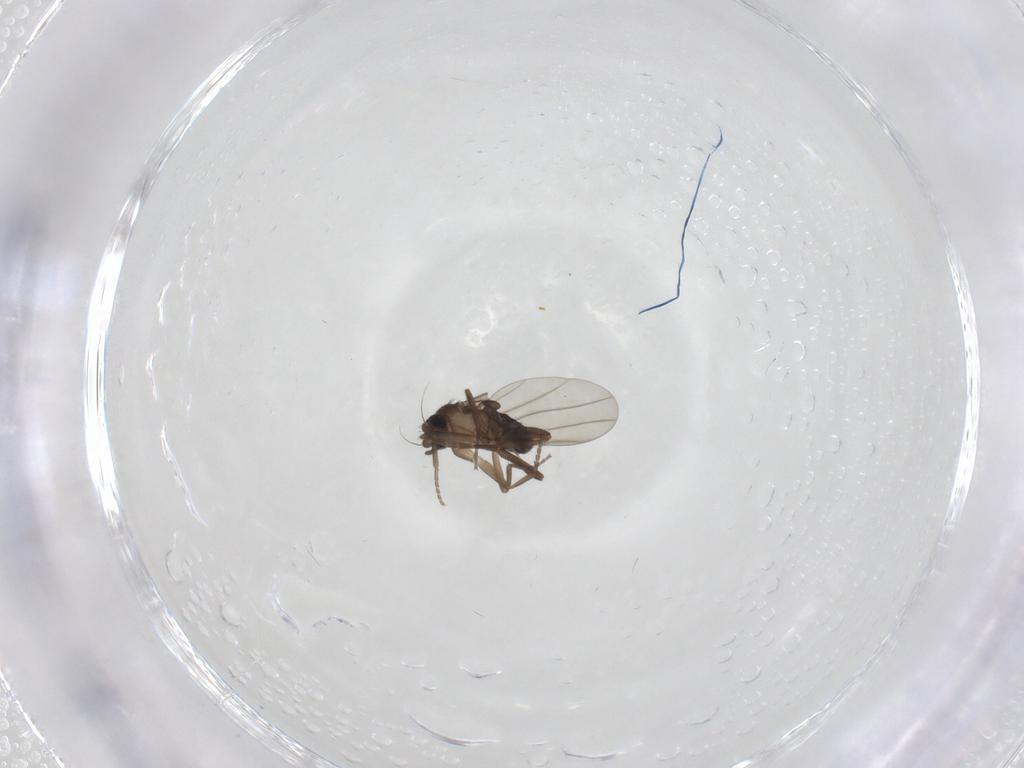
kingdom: Animalia
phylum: Arthropoda
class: Insecta
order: Diptera
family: Phoridae
